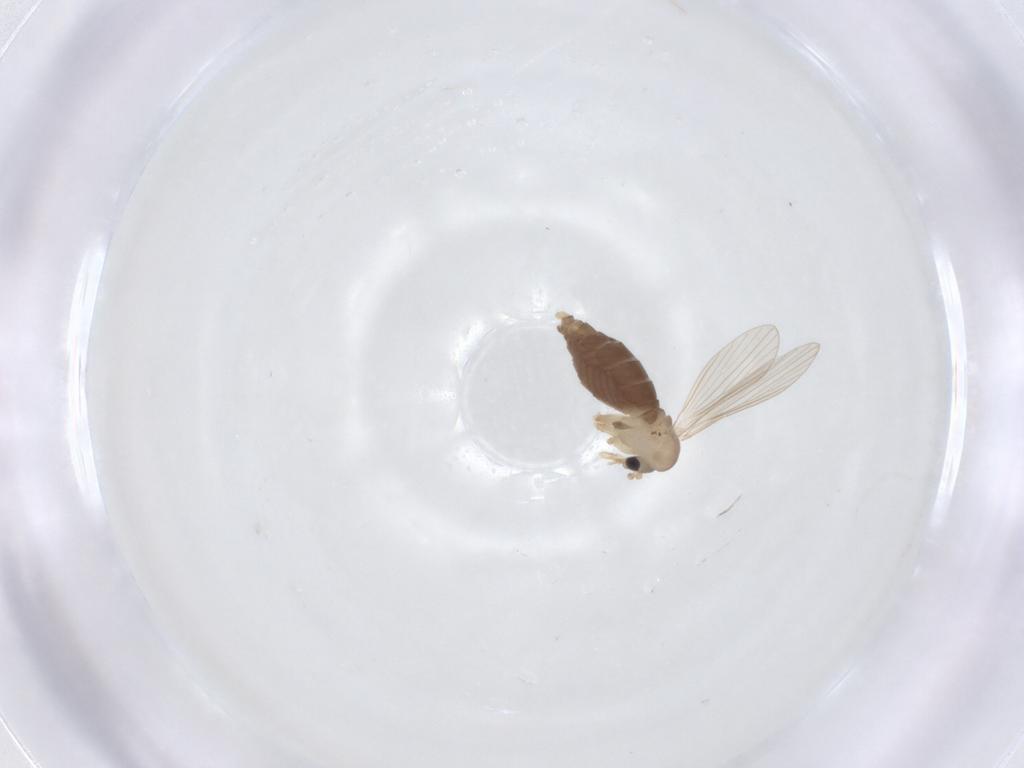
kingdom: Animalia
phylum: Arthropoda
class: Insecta
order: Diptera
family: Psychodidae
